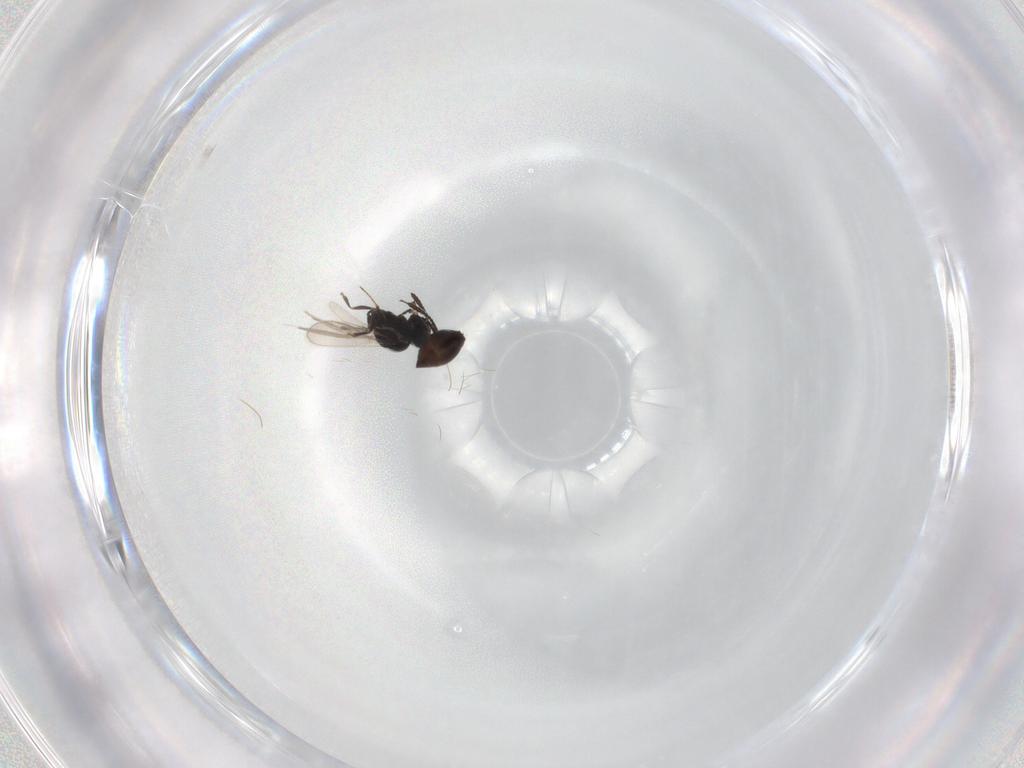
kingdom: Animalia
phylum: Arthropoda
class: Insecta
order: Hymenoptera
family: Scelionidae
